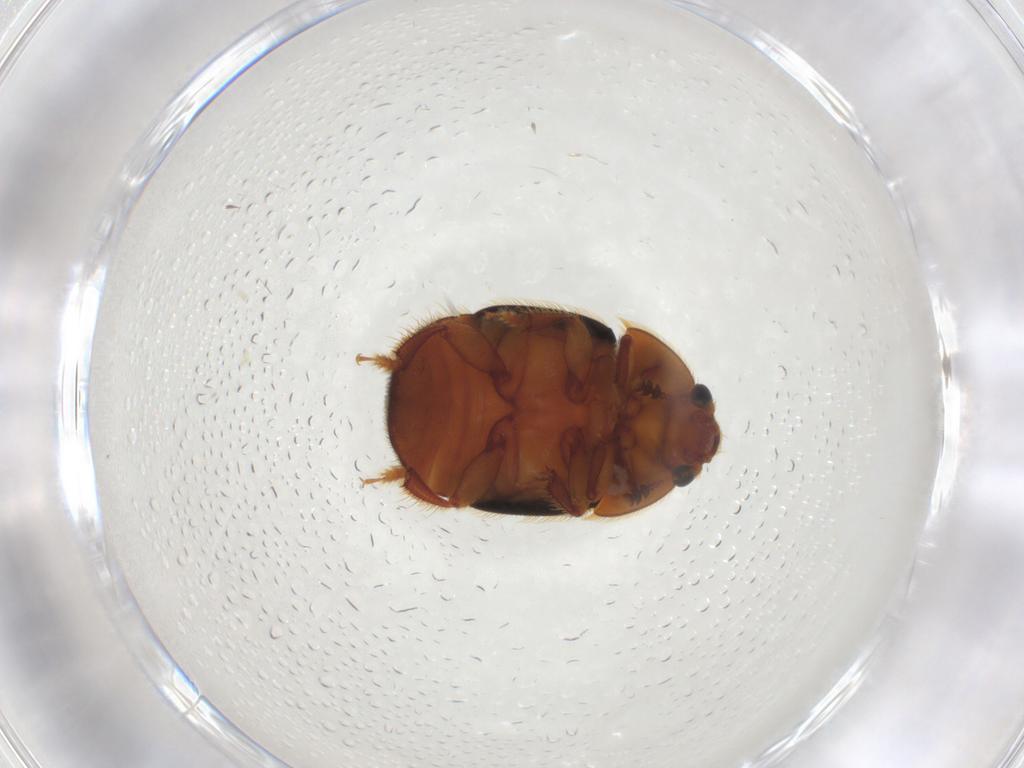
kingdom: Animalia
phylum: Arthropoda
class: Insecta
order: Coleoptera
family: Nitidulidae
